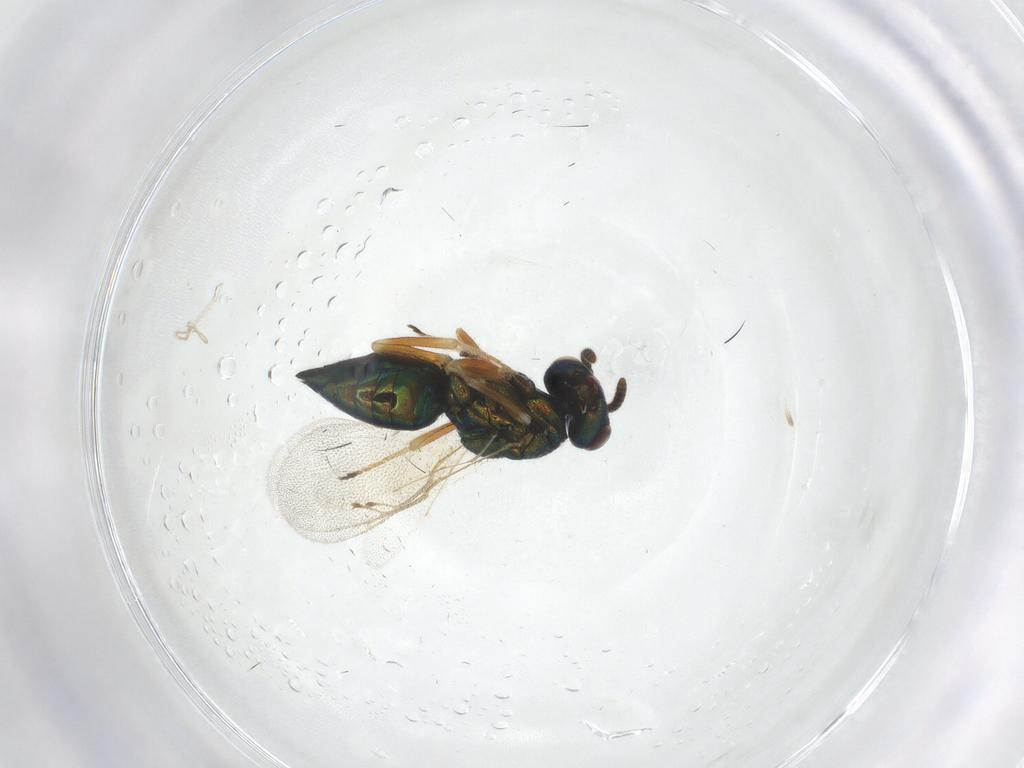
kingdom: Animalia
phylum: Arthropoda
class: Insecta
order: Hymenoptera
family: Pteromalidae
